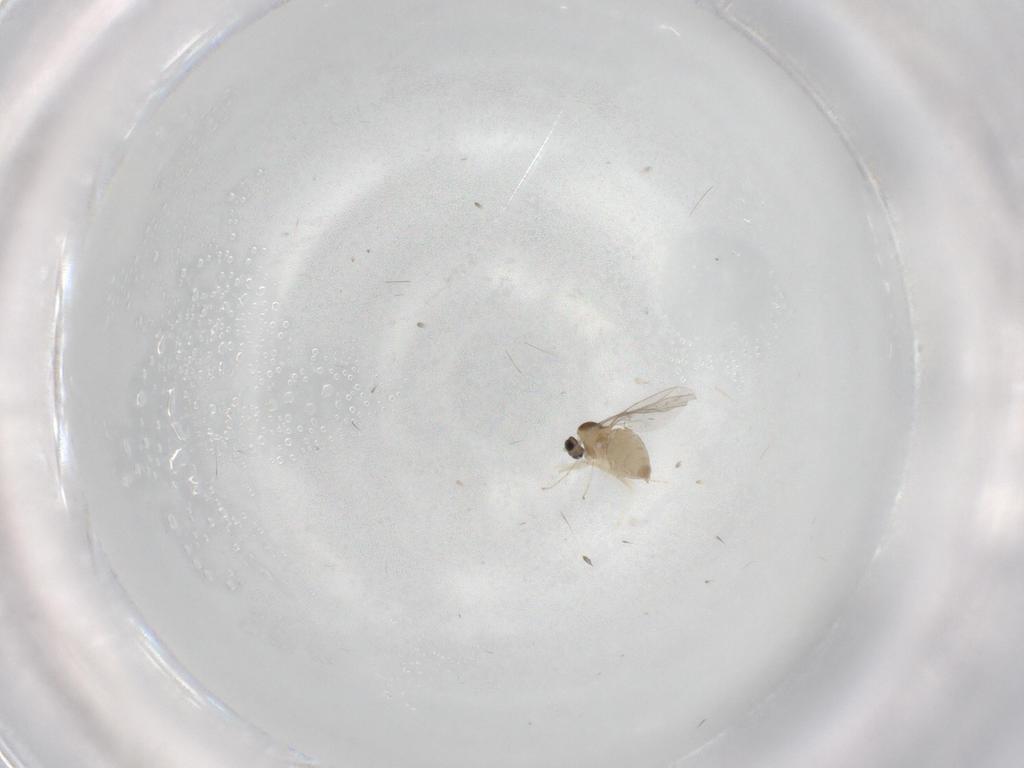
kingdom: Animalia
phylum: Arthropoda
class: Insecta
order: Diptera
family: Cecidomyiidae
